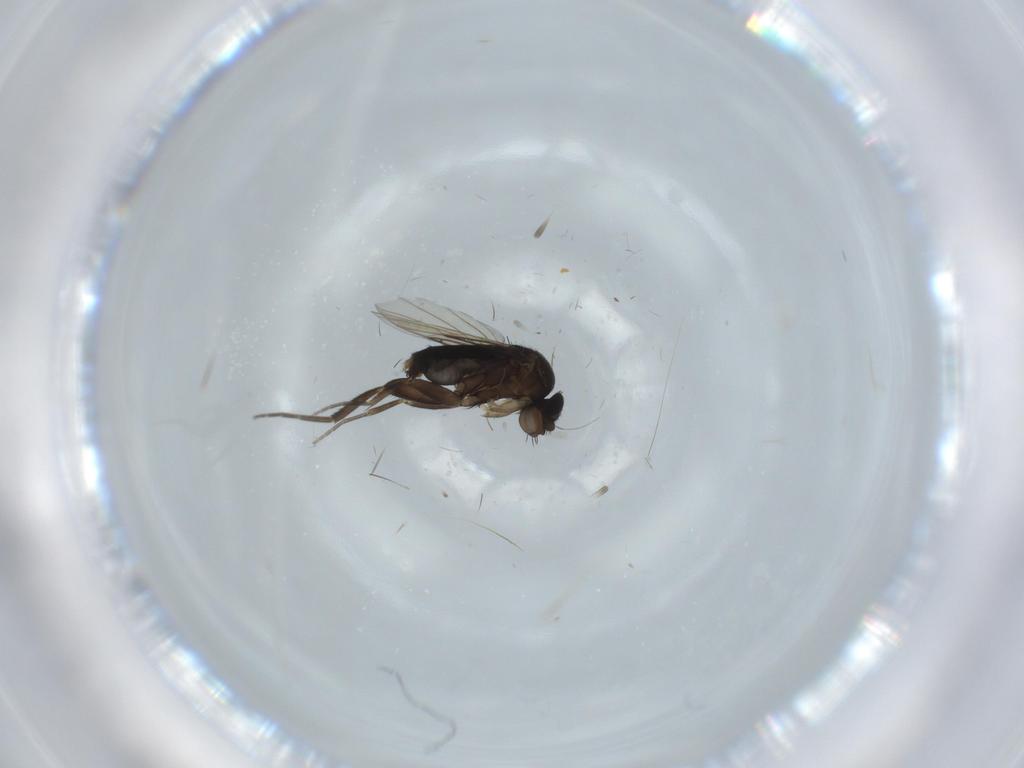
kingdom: Animalia
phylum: Arthropoda
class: Insecta
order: Diptera
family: Phoridae
